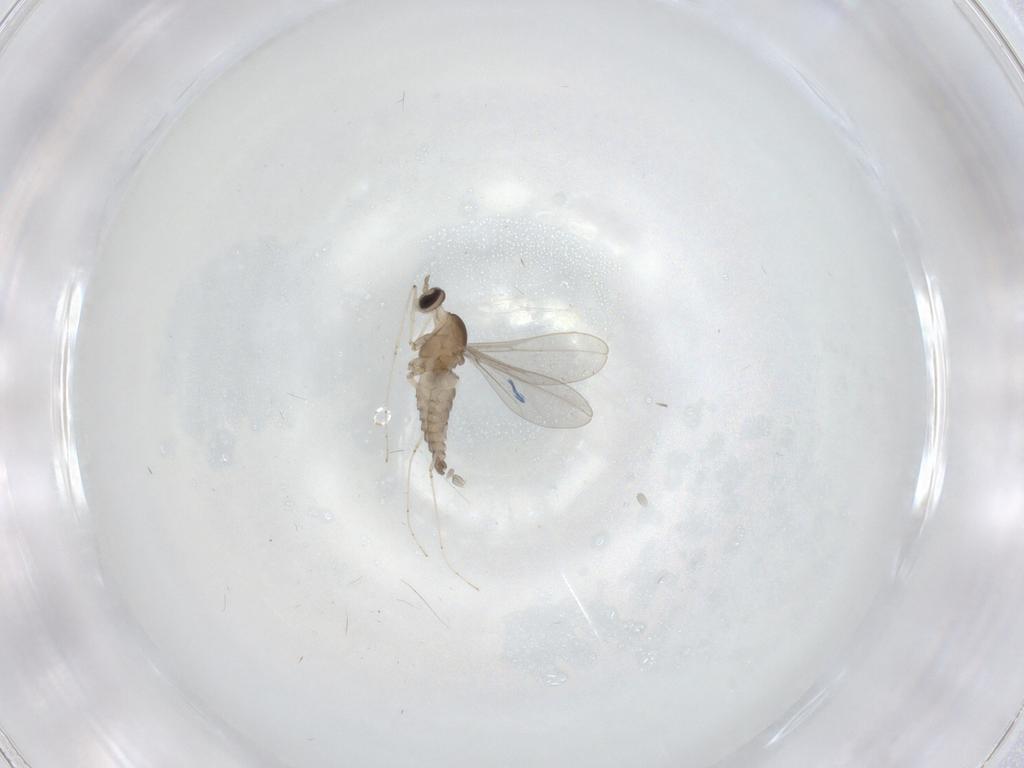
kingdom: Animalia
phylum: Arthropoda
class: Insecta
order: Diptera
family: Cecidomyiidae
